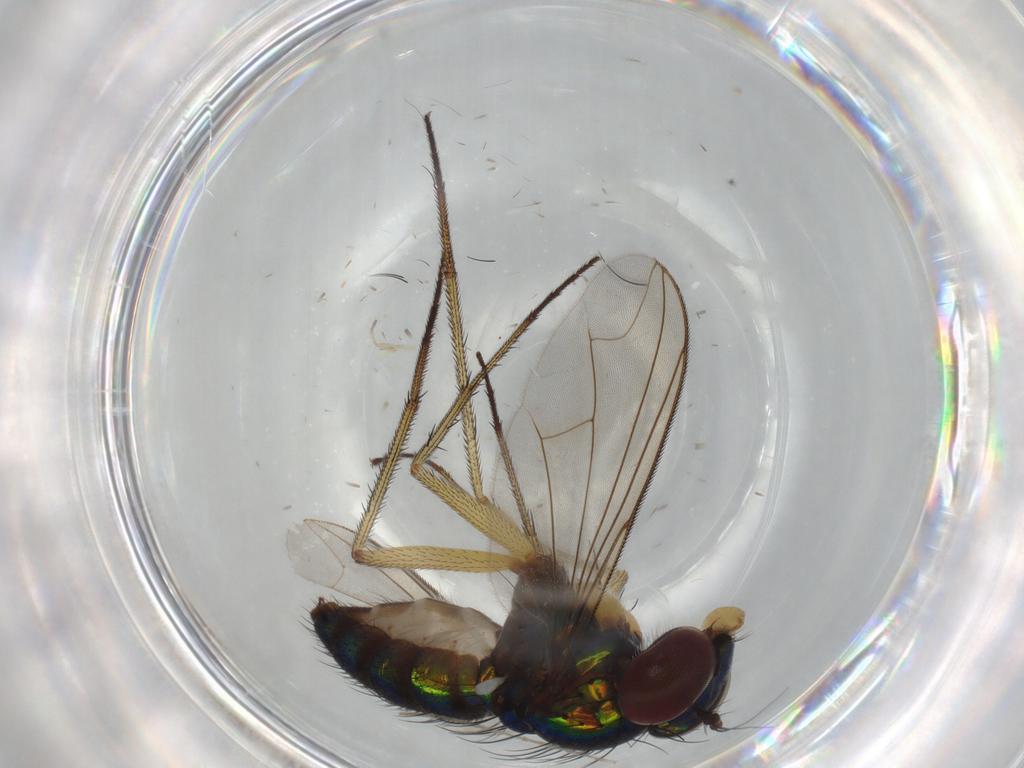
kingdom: Animalia
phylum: Arthropoda
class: Insecta
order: Diptera
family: Dolichopodidae
